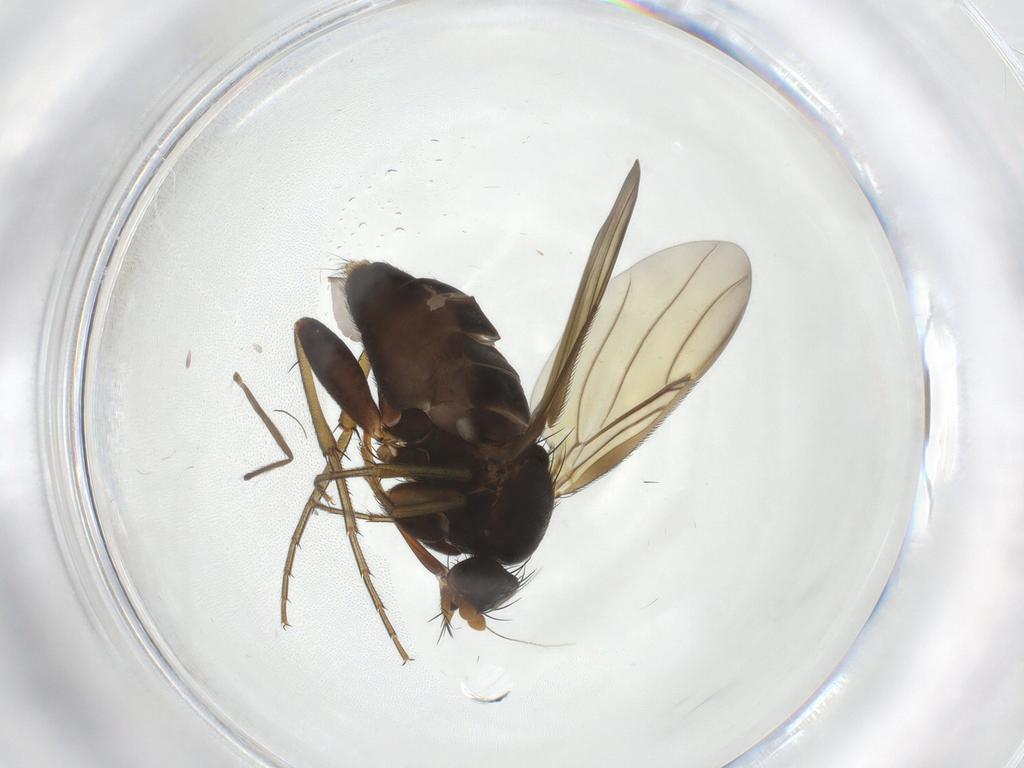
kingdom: Animalia
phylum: Arthropoda
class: Insecta
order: Diptera
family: Phoridae
